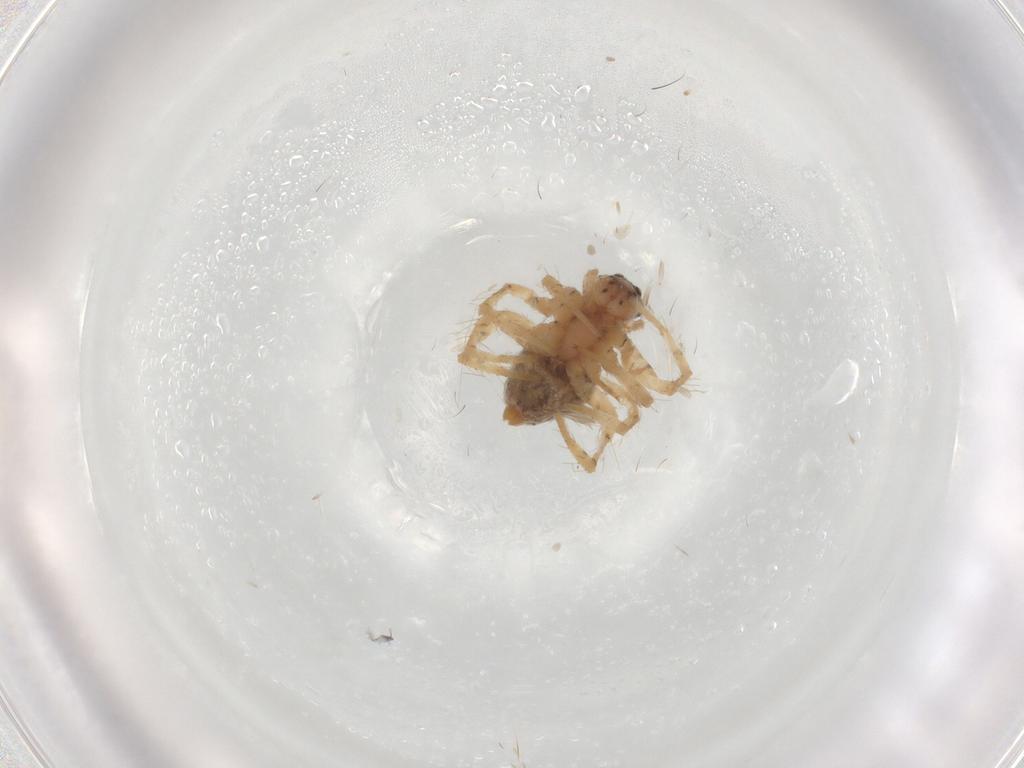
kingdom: Animalia
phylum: Arthropoda
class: Arachnida
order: Araneae
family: Oxyopidae
